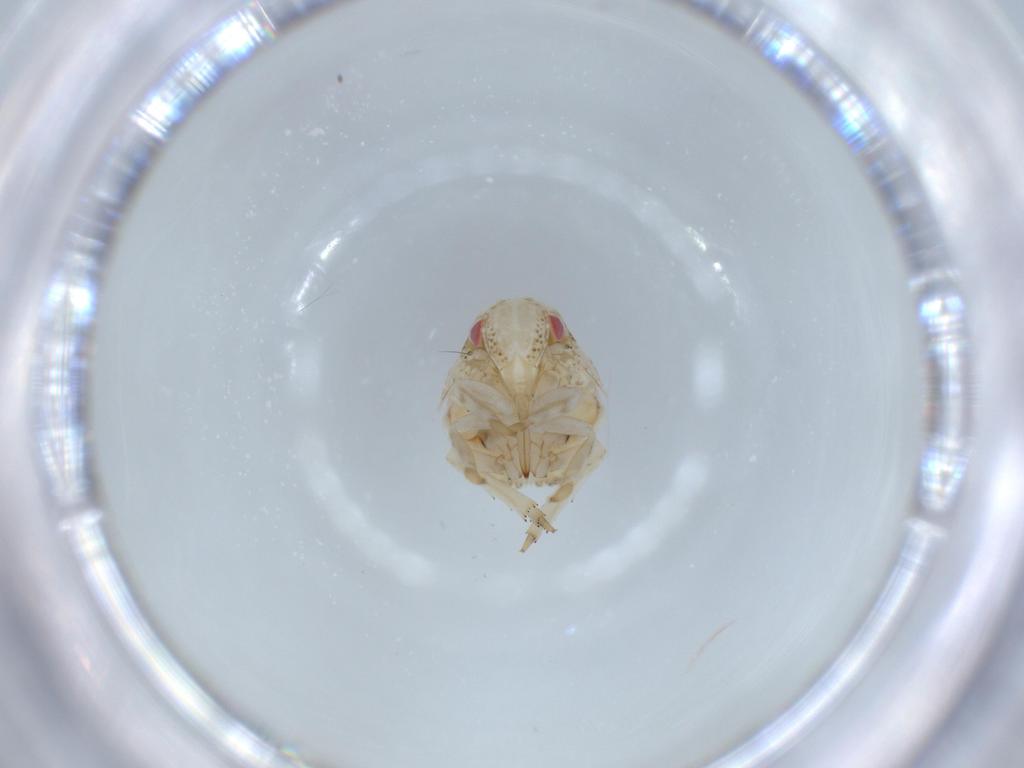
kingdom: Animalia
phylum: Arthropoda
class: Insecta
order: Hemiptera
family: Acanaloniidae
